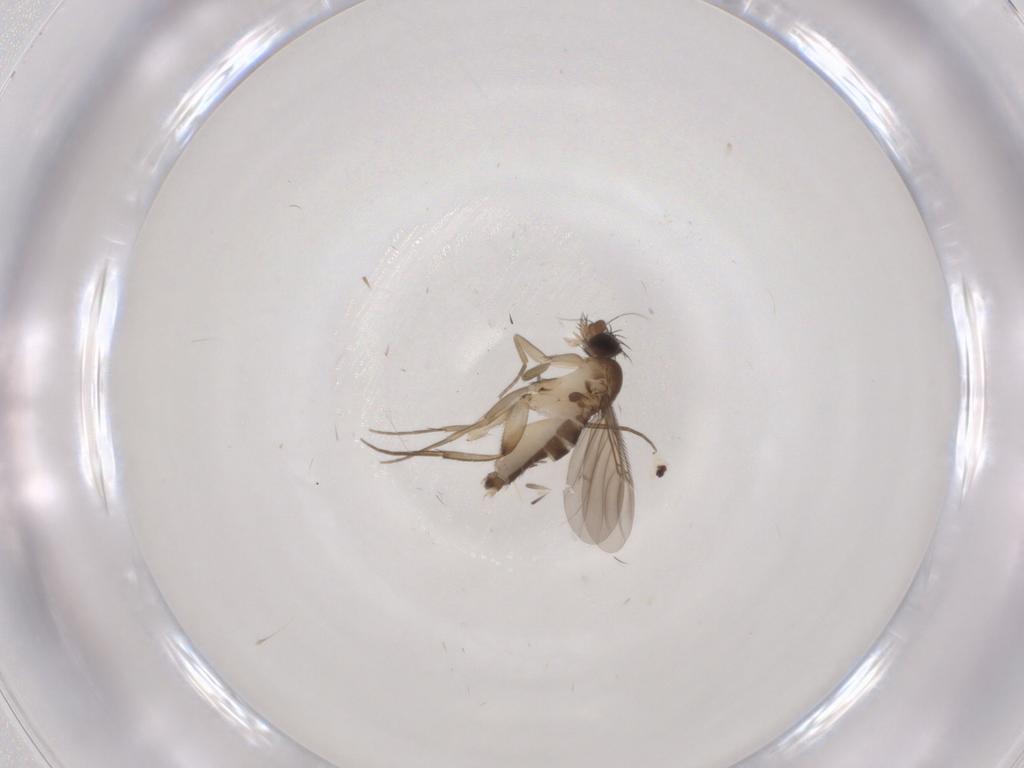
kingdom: Animalia
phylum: Arthropoda
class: Insecta
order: Diptera
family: Phoridae
